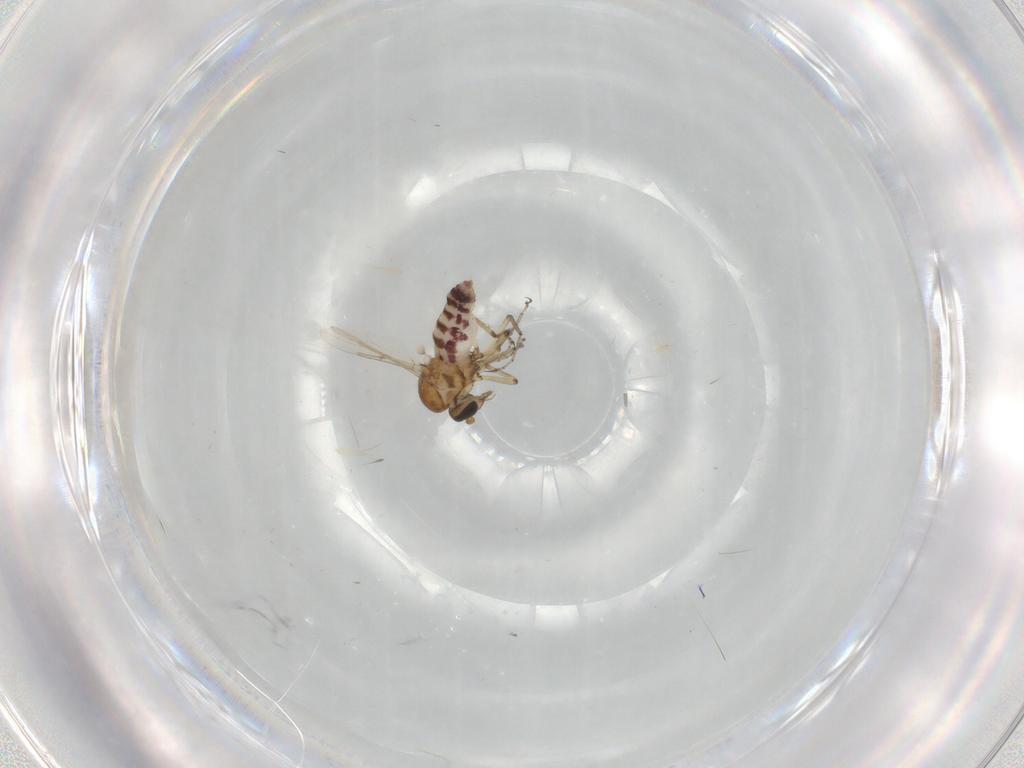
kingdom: Animalia
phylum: Arthropoda
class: Insecta
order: Diptera
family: Ceratopogonidae
